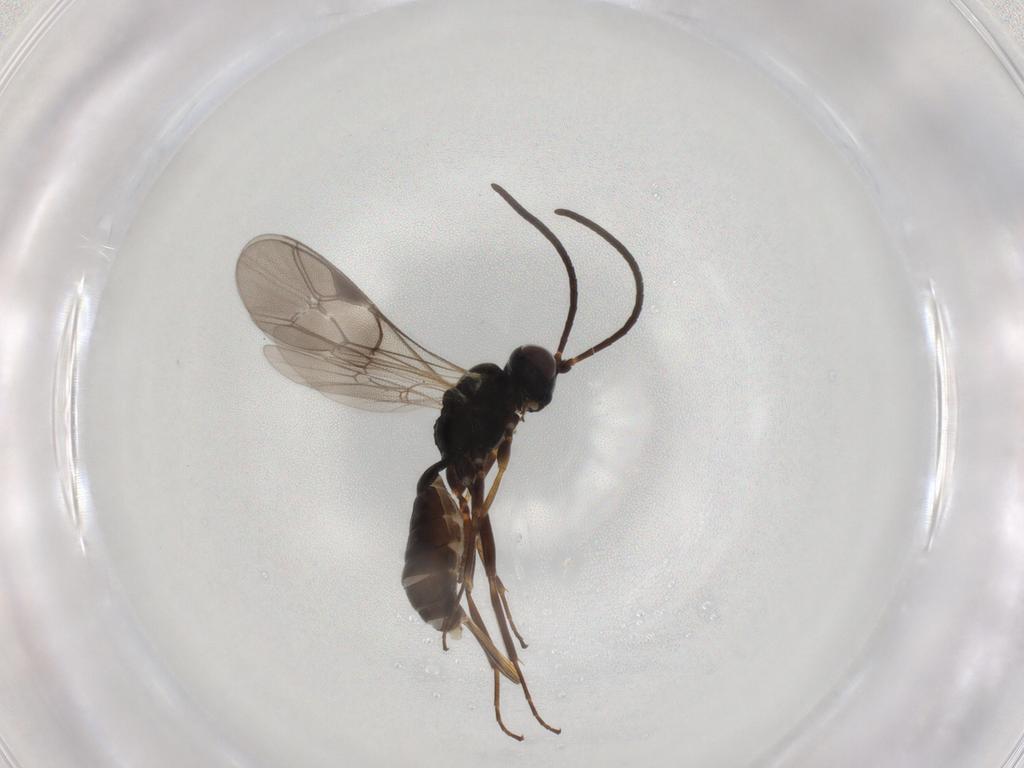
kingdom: Animalia
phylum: Arthropoda
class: Insecta
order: Hymenoptera
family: Ichneumonidae
